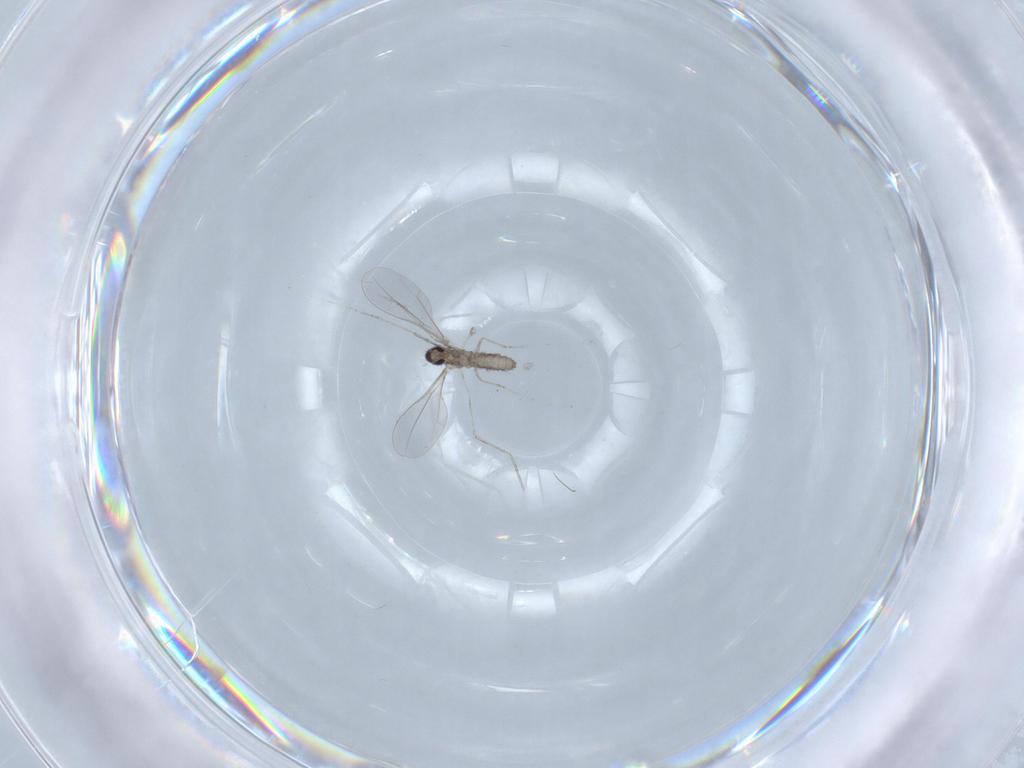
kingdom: Animalia
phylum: Arthropoda
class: Insecta
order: Diptera
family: Cecidomyiidae
